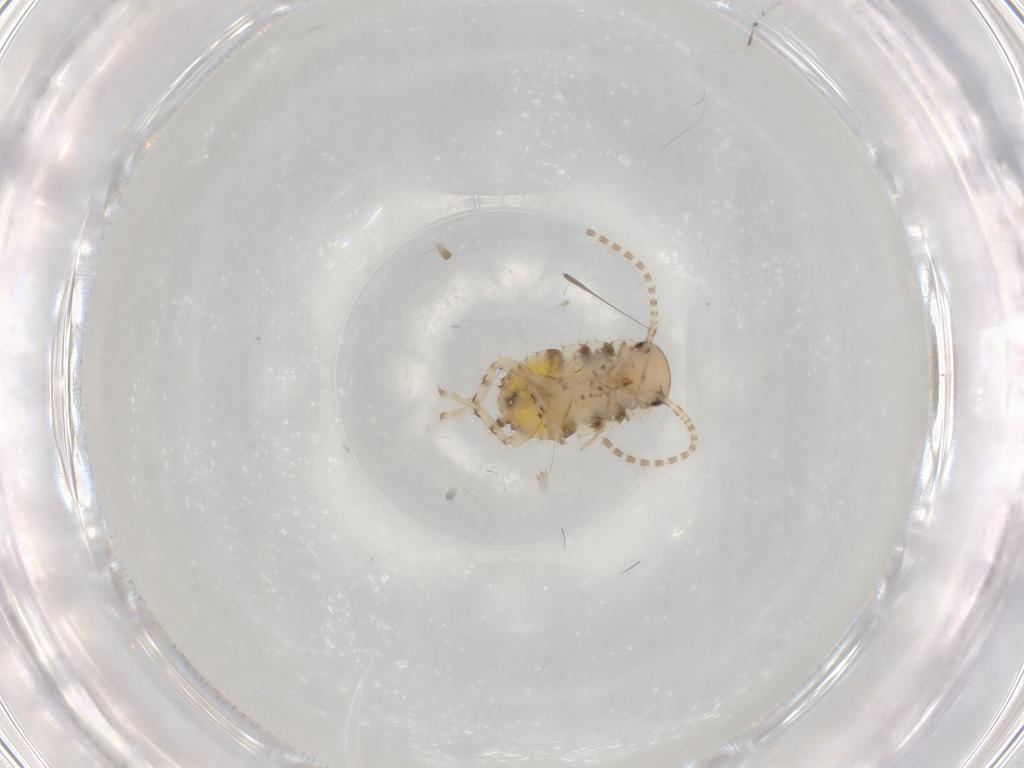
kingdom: Animalia
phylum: Arthropoda
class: Insecta
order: Blattodea
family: Ectobiidae
